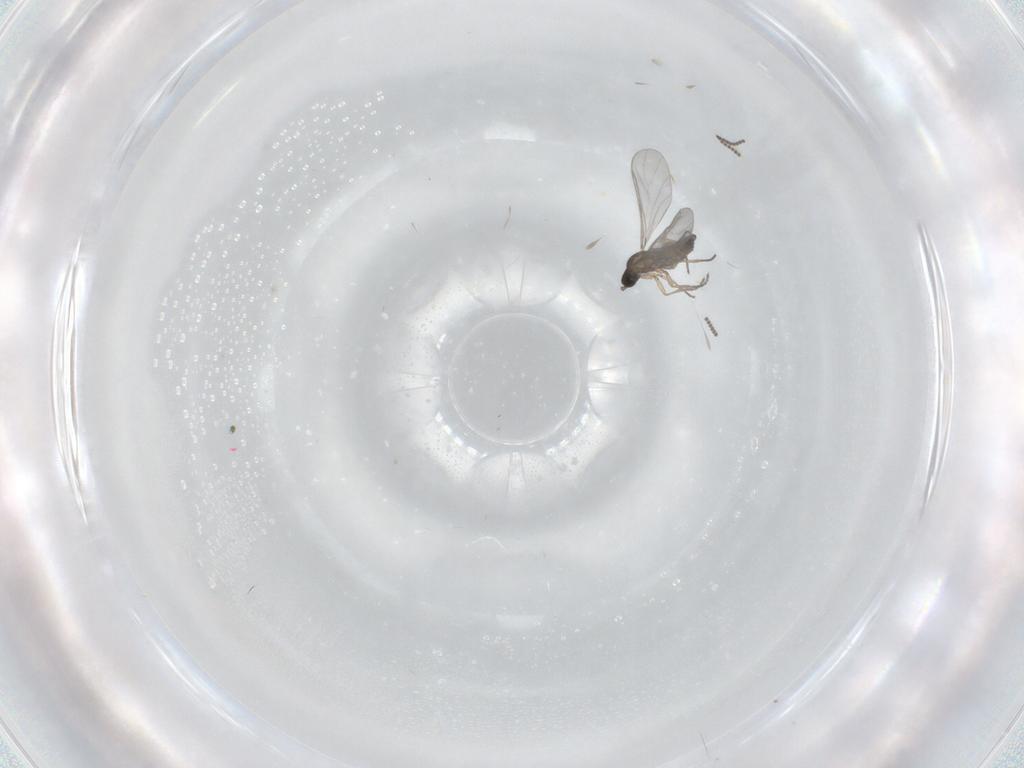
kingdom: Animalia
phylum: Arthropoda
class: Insecta
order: Diptera
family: Sciaridae
